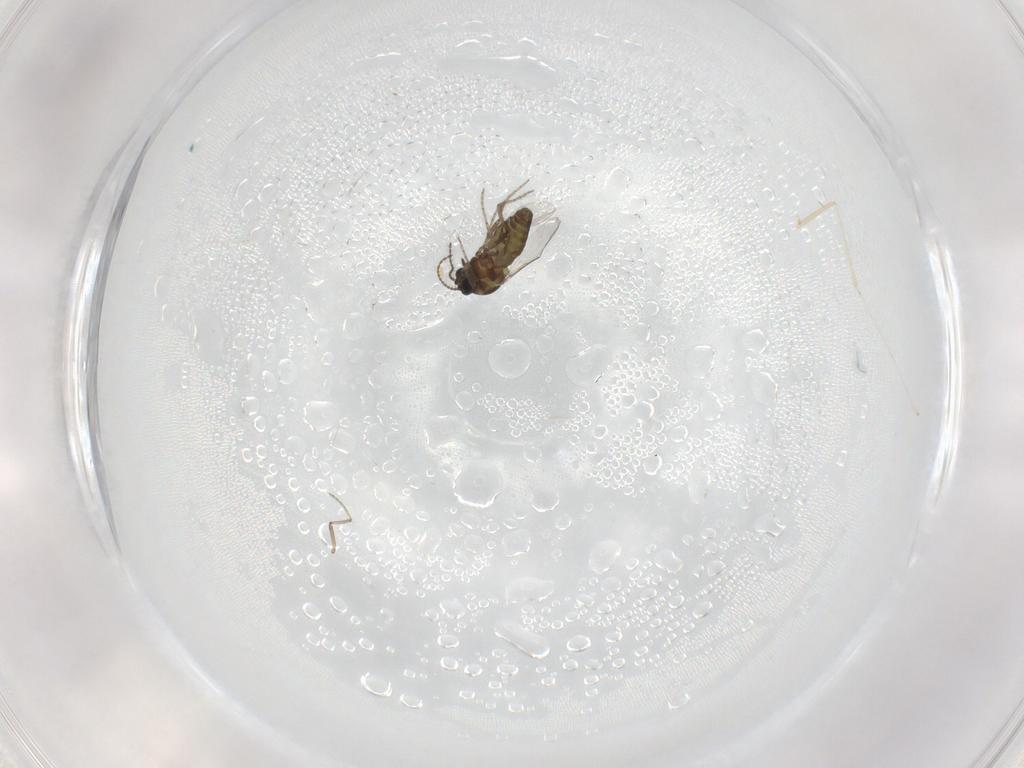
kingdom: Animalia
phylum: Arthropoda
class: Insecta
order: Diptera
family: Ceratopogonidae
